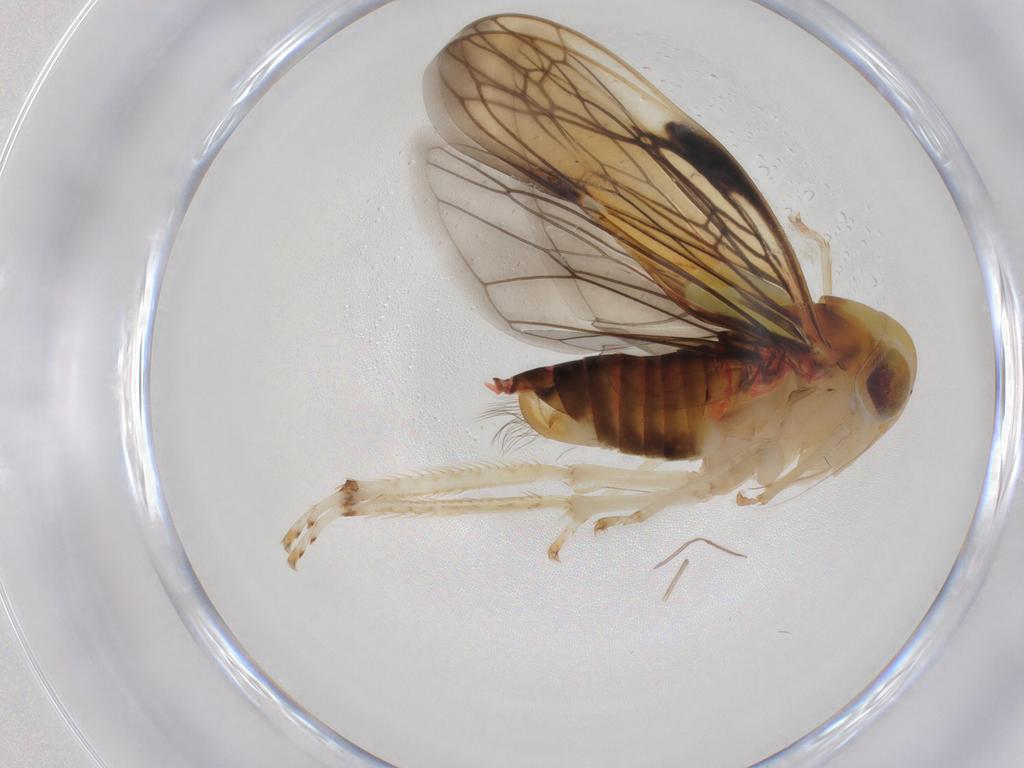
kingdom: Animalia
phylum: Arthropoda
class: Insecta
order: Hemiptera
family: Cicadellidae
